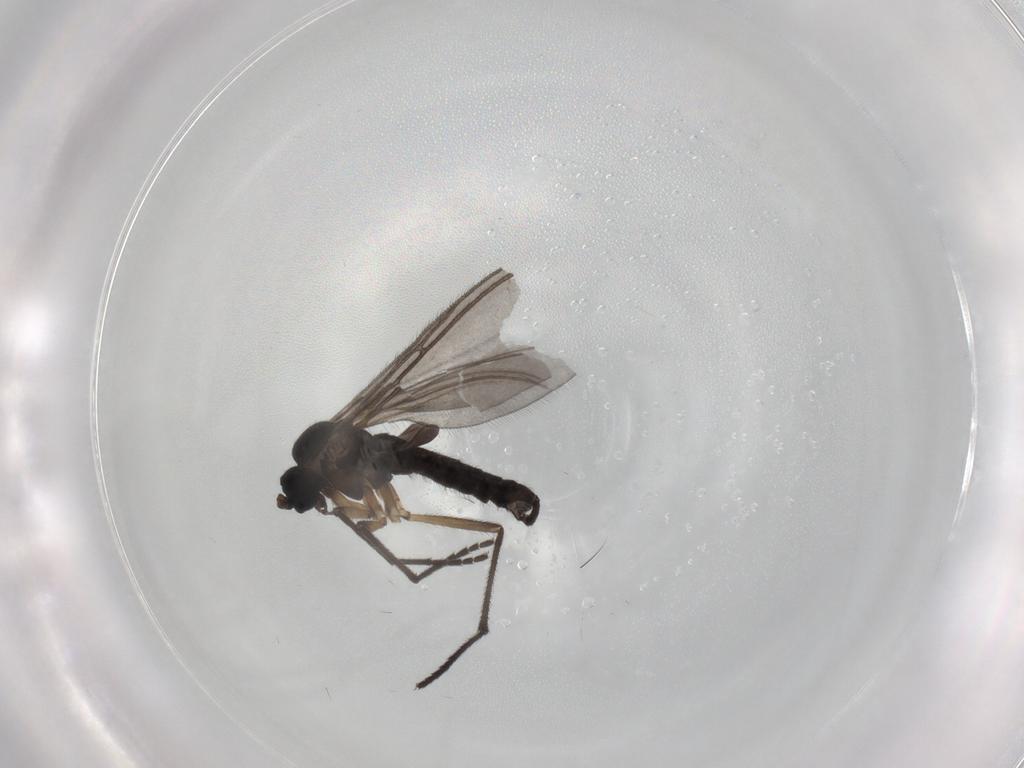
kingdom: Animalia
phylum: Arthropoda
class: Insecta
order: Diptera
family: Sciaridae
